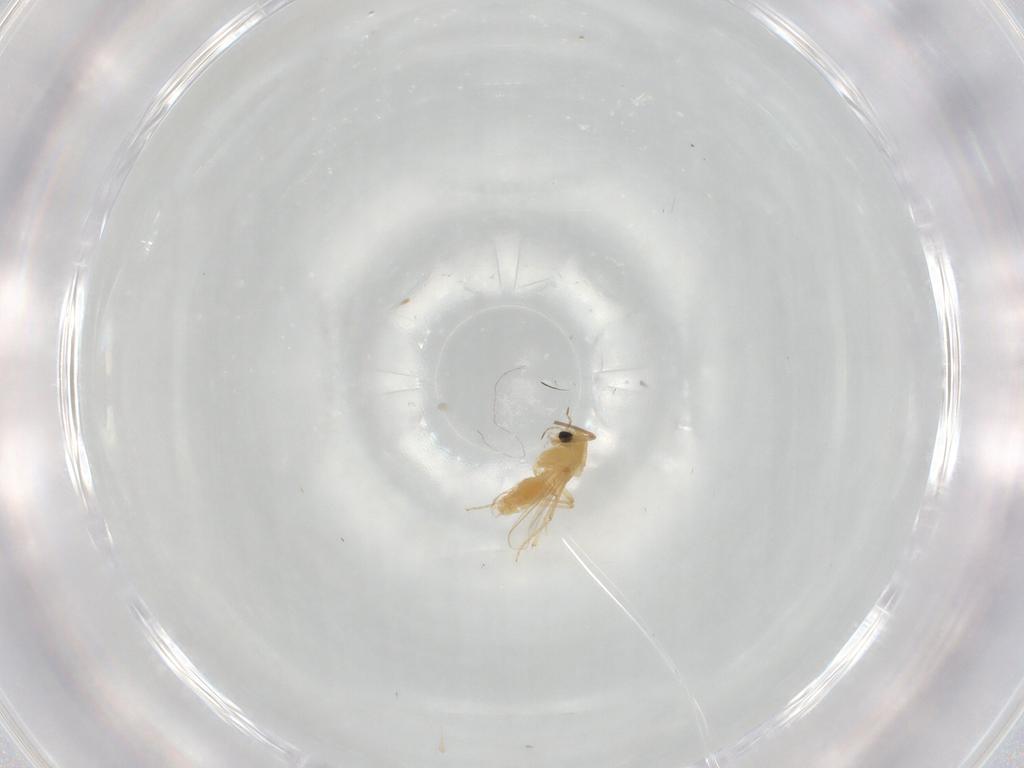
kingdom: Animalia
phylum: Arthropoda
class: Insecta
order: Diptera
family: Chironomidae
